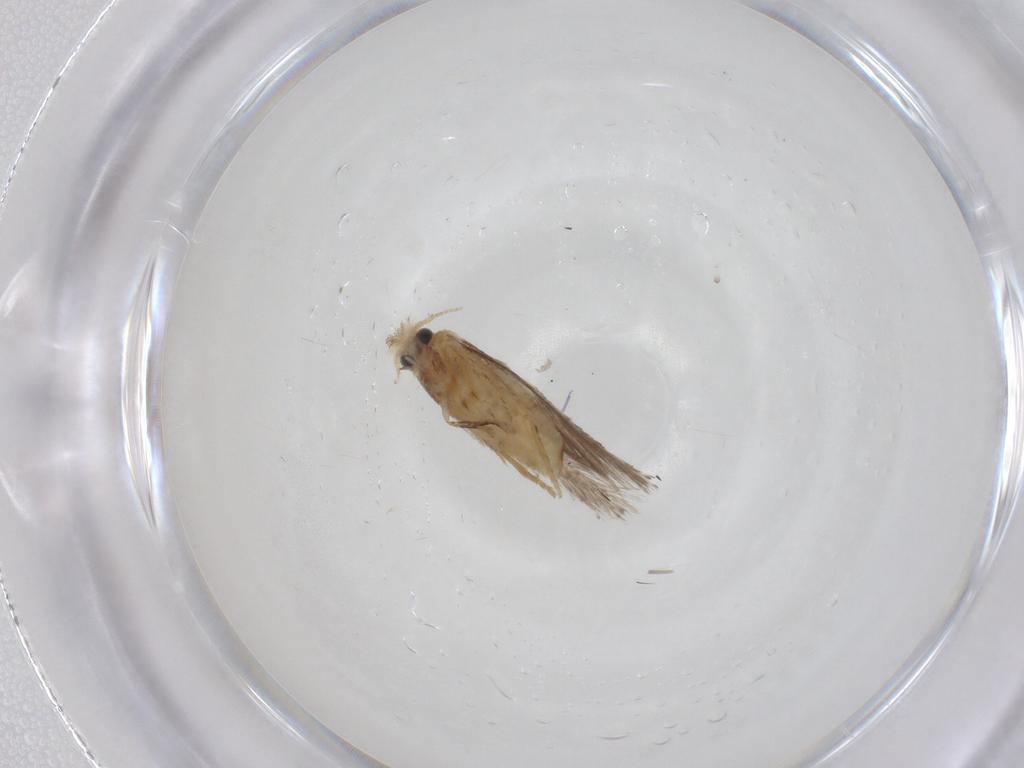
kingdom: Animalia
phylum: Arthropoda
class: Insecta
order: Lepidoptera
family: Nepticulidae
